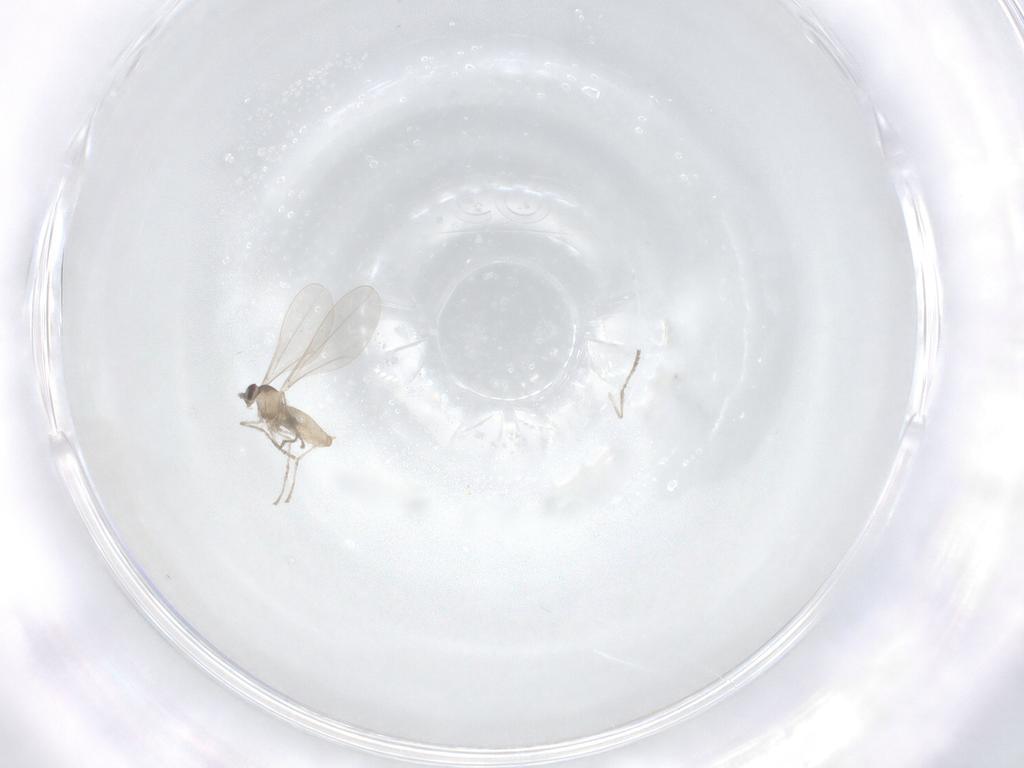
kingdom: Animalia
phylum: Arthropoda
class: Insecta
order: Diptera
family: Cecidomyiidae
